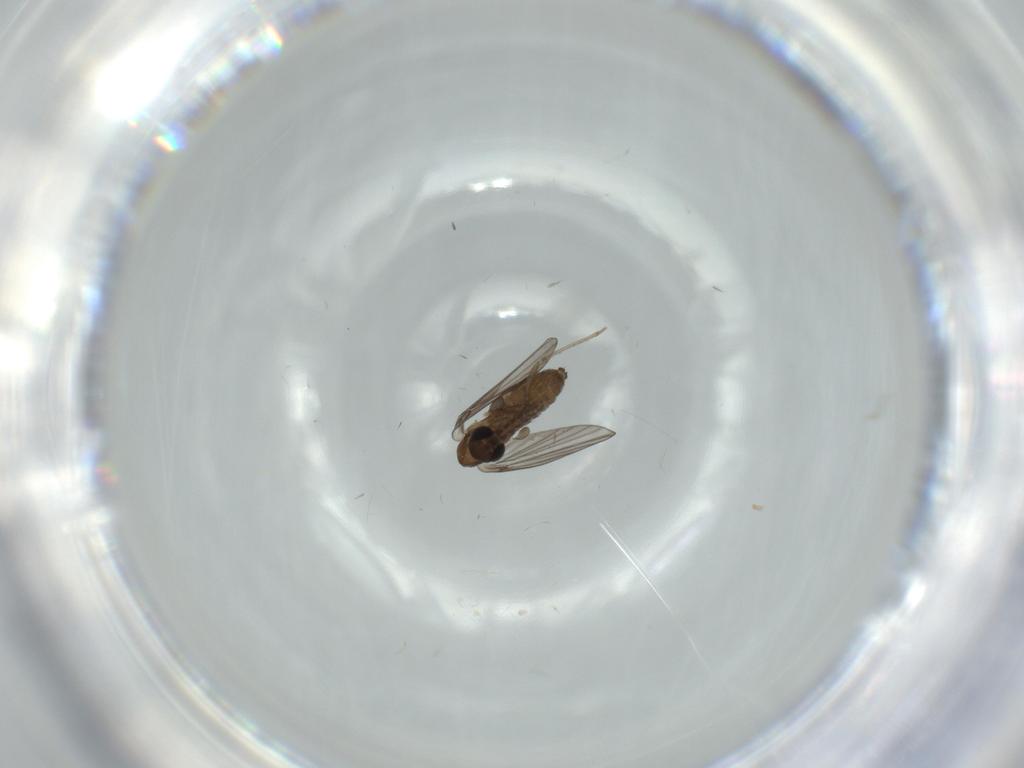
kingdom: Animalia
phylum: Arthropoda
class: Insecta
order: Diptera
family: Psychodidae
